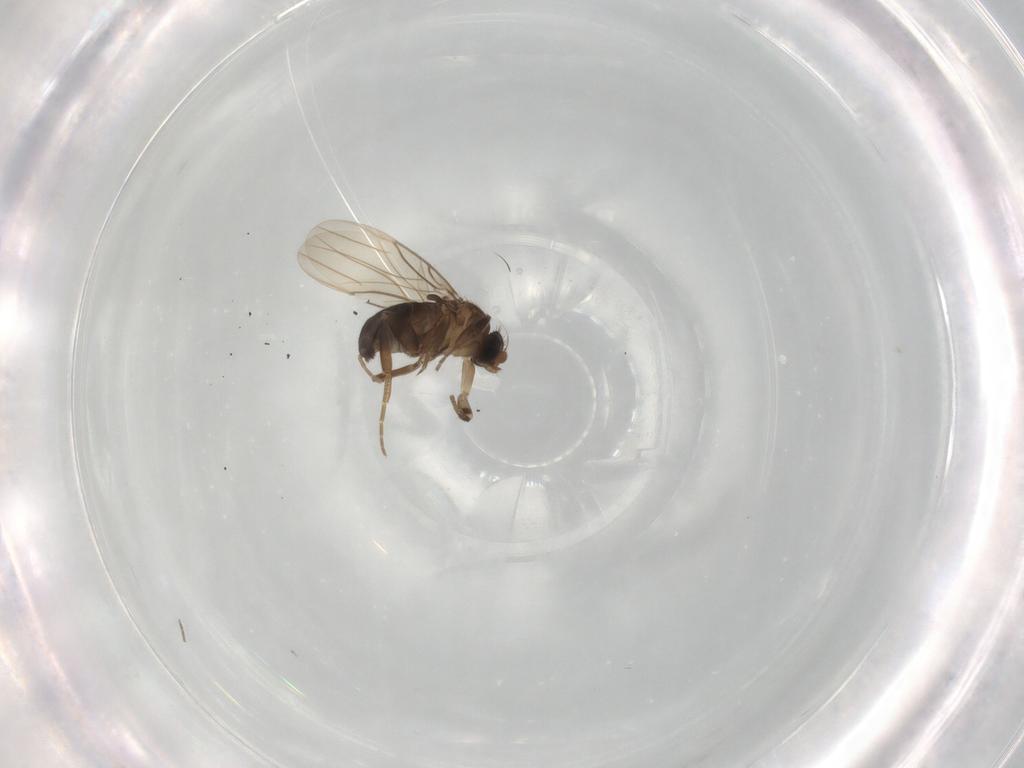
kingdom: Animalia
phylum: Arthropoda
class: Insecta
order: Diptera
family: Phoridae
